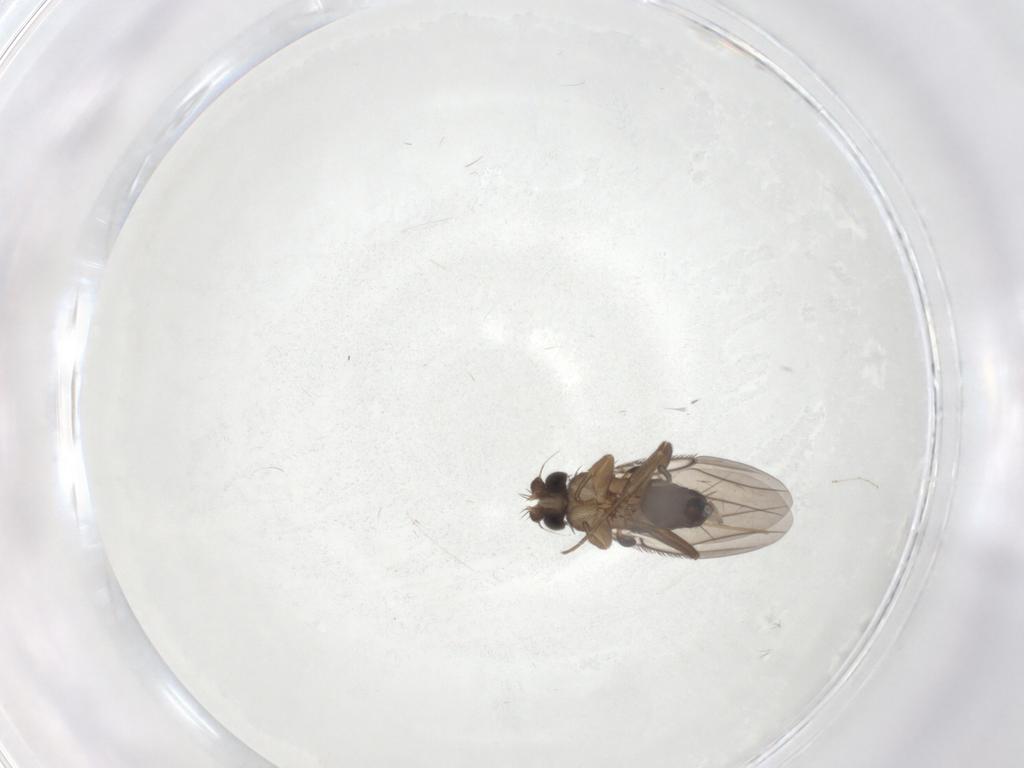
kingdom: Animalia
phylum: Arthropoda
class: Insecta
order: Diptera
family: Phoridae
